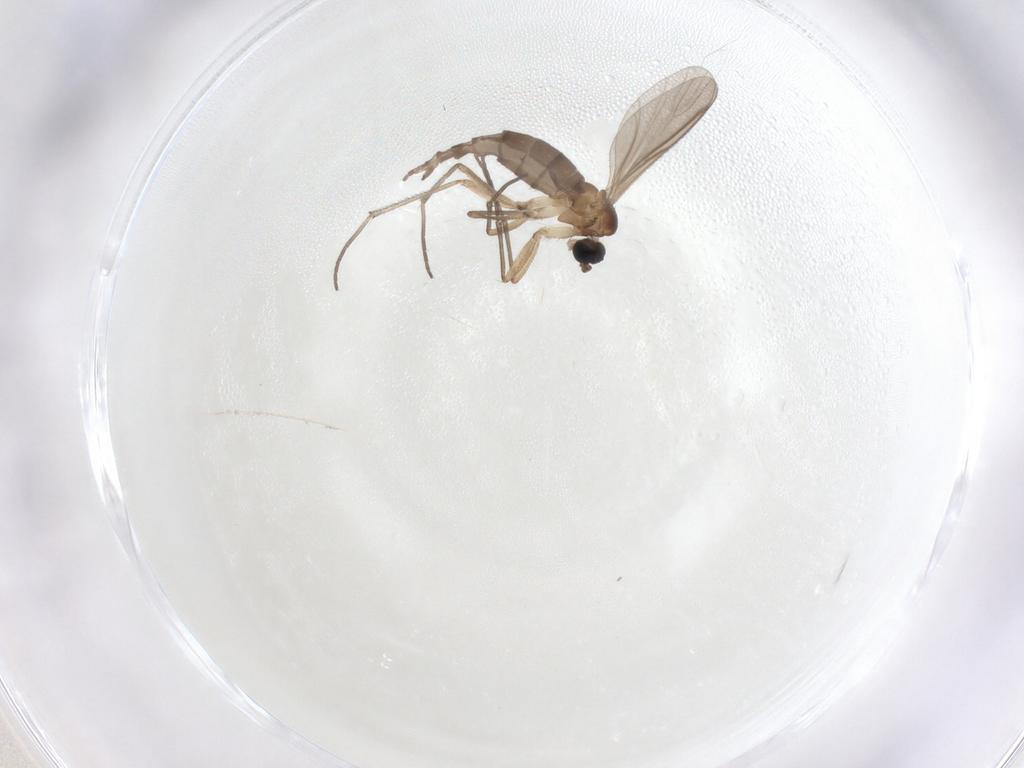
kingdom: Animalia
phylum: Arthropoda
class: Insecta
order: Diptera
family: Sciaridae
